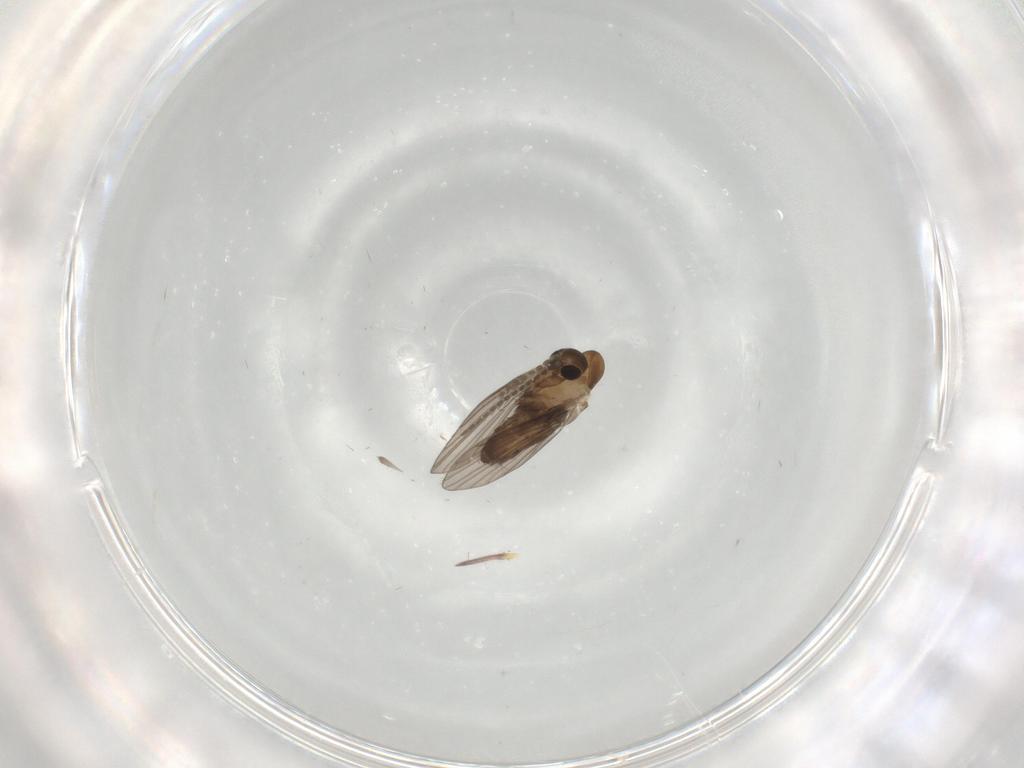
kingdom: Animalia
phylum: Arthropoda
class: Insecta
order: Diptera
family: Psychodidae
